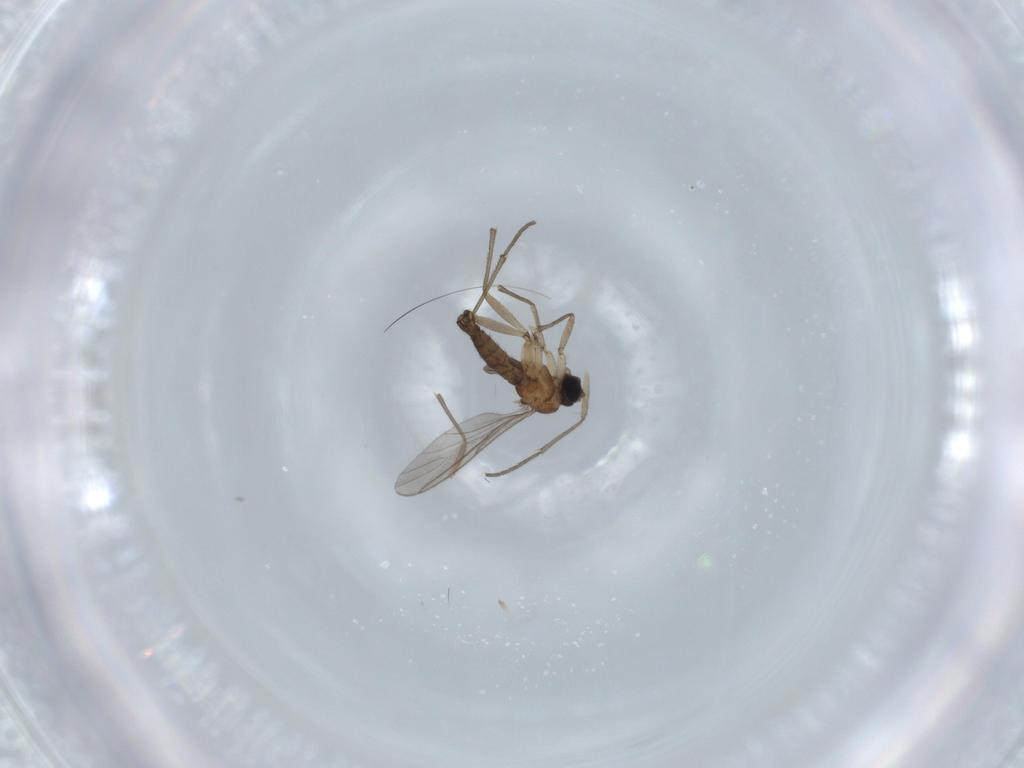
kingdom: Animalia
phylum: Arthropoda
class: Insecta
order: Diptera
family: Sciaridae
